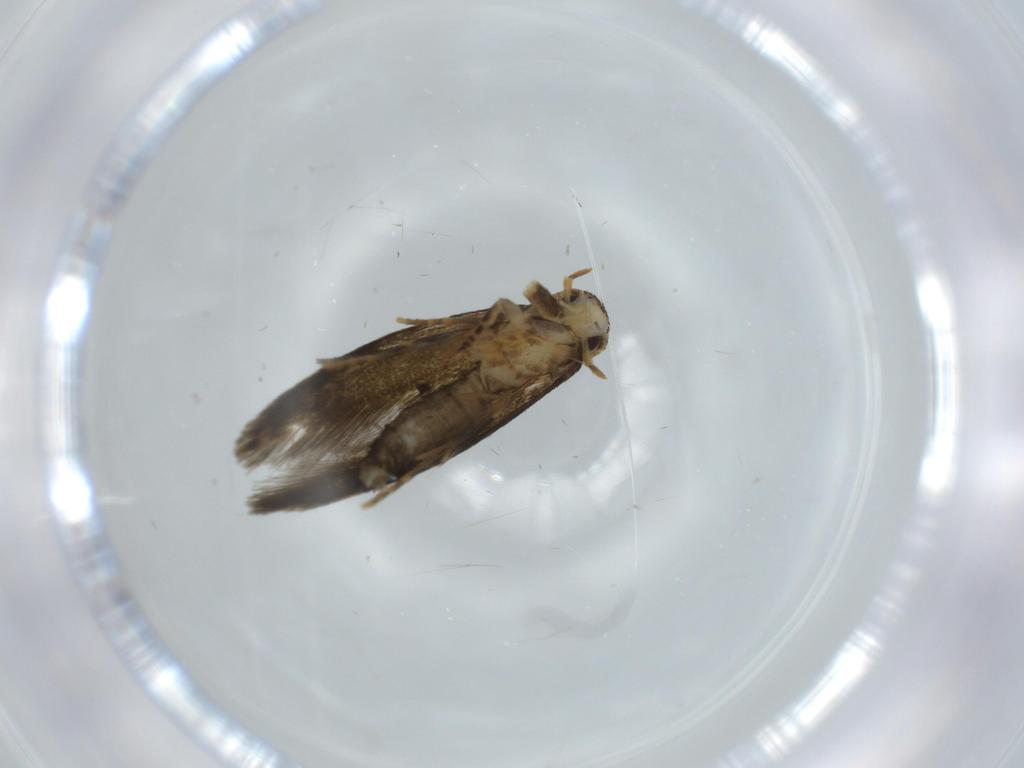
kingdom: Animalia
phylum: Arthropoda
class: Insecta
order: Lepidoptera
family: Tineidae
